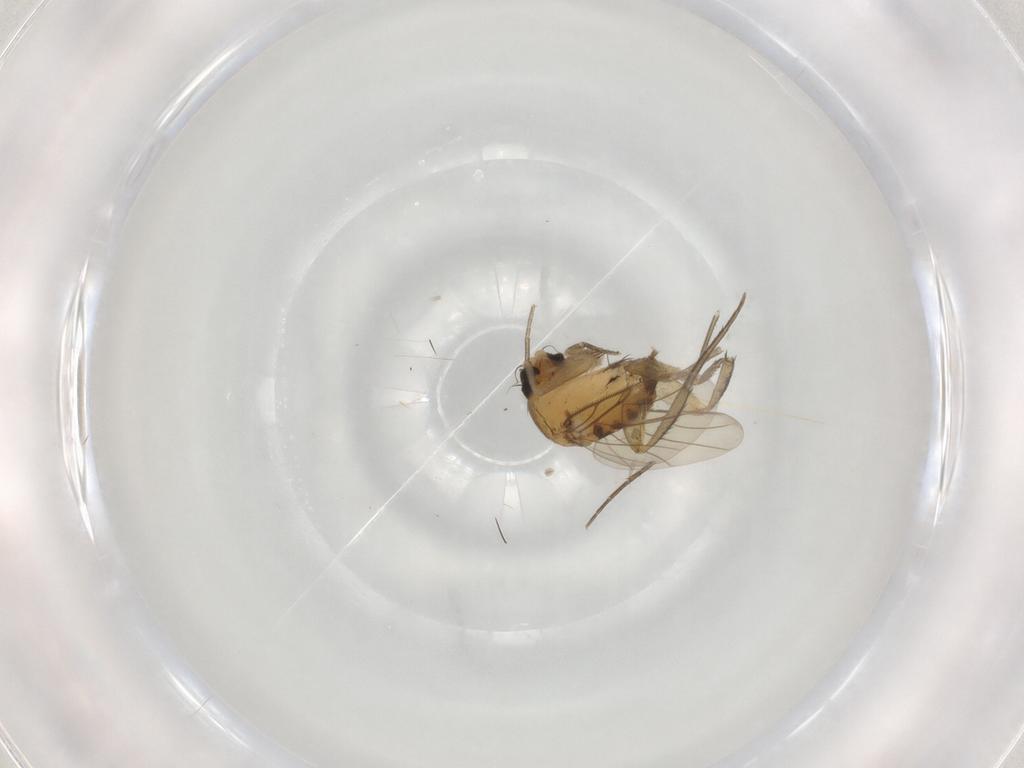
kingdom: Animalia
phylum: Arthropoda
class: Insecta
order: Diptera
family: Phoridae
